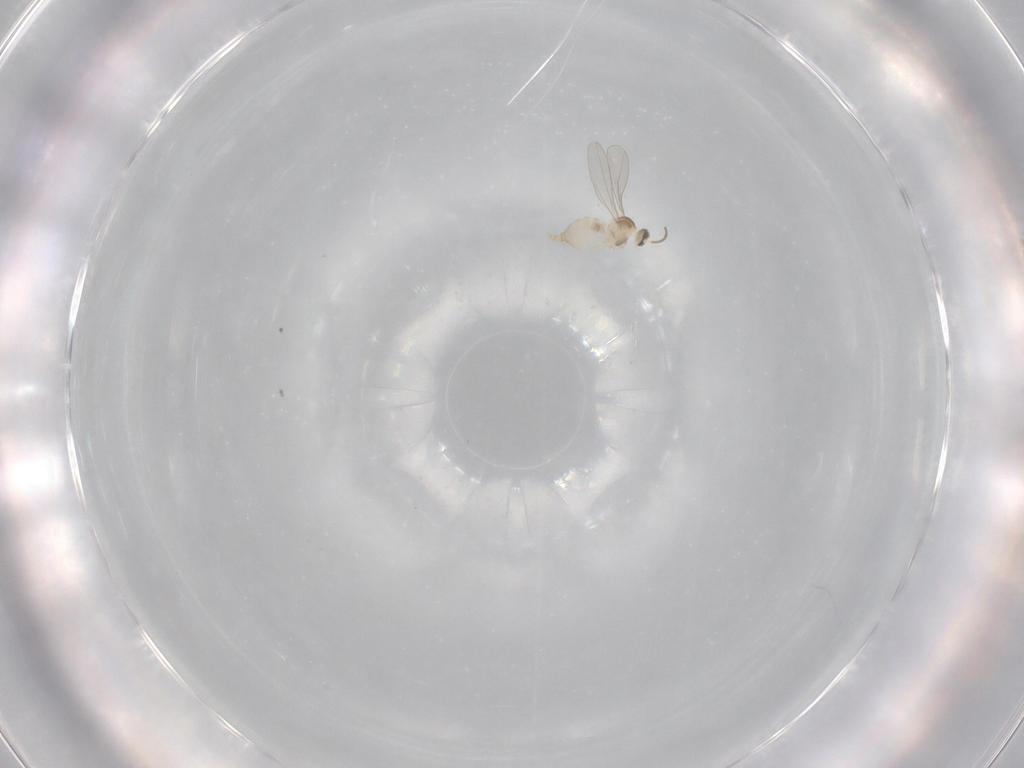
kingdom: Animalia
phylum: Arthropoda
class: Insecta
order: Diptera
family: Cecidomyiidae
